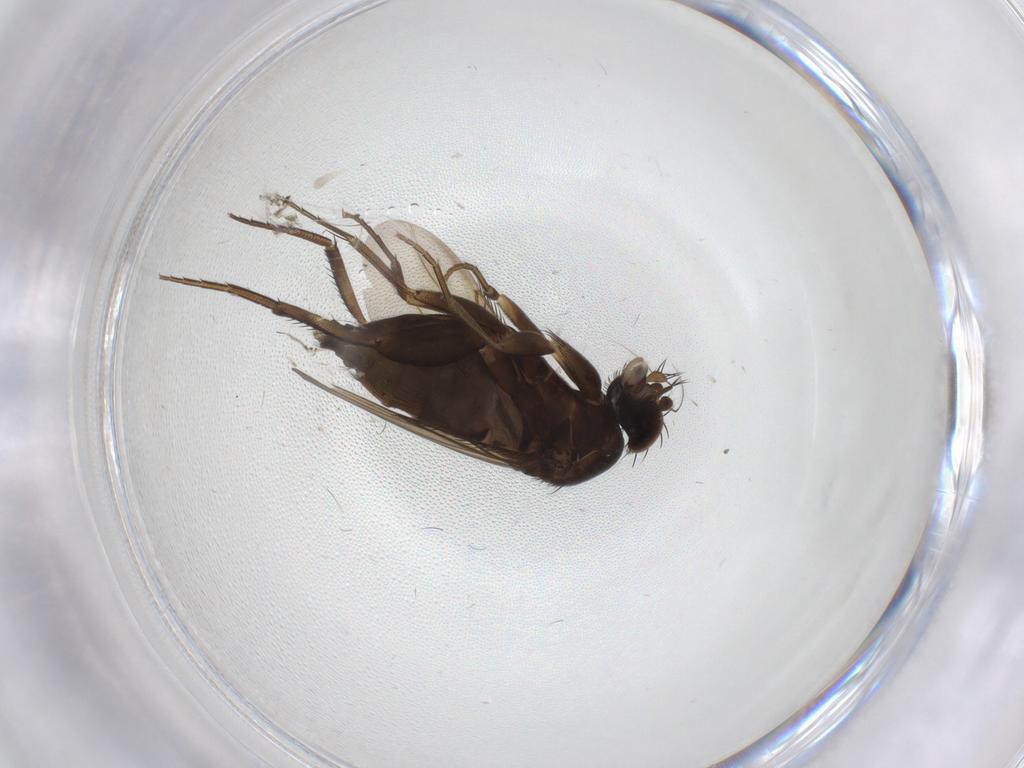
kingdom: Animalia
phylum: Arthropoda
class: Insecta
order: Diptera
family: Phoridae
